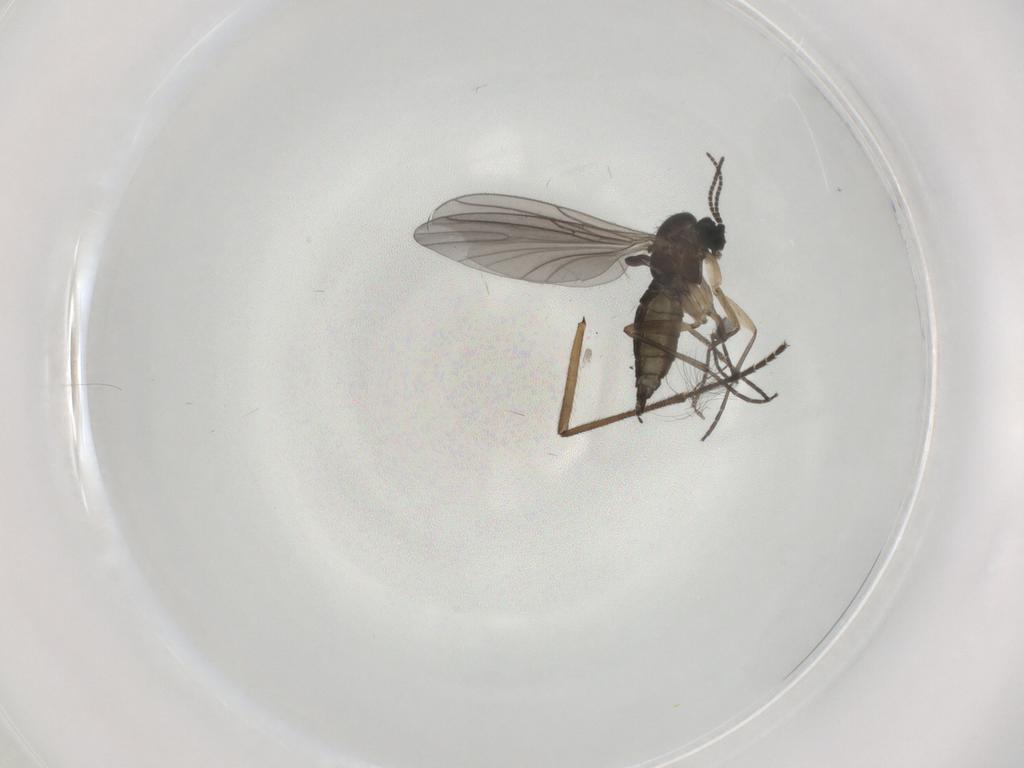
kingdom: Animalia
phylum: Arthropoda
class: Insecta
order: Diptera
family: Sciaridae
